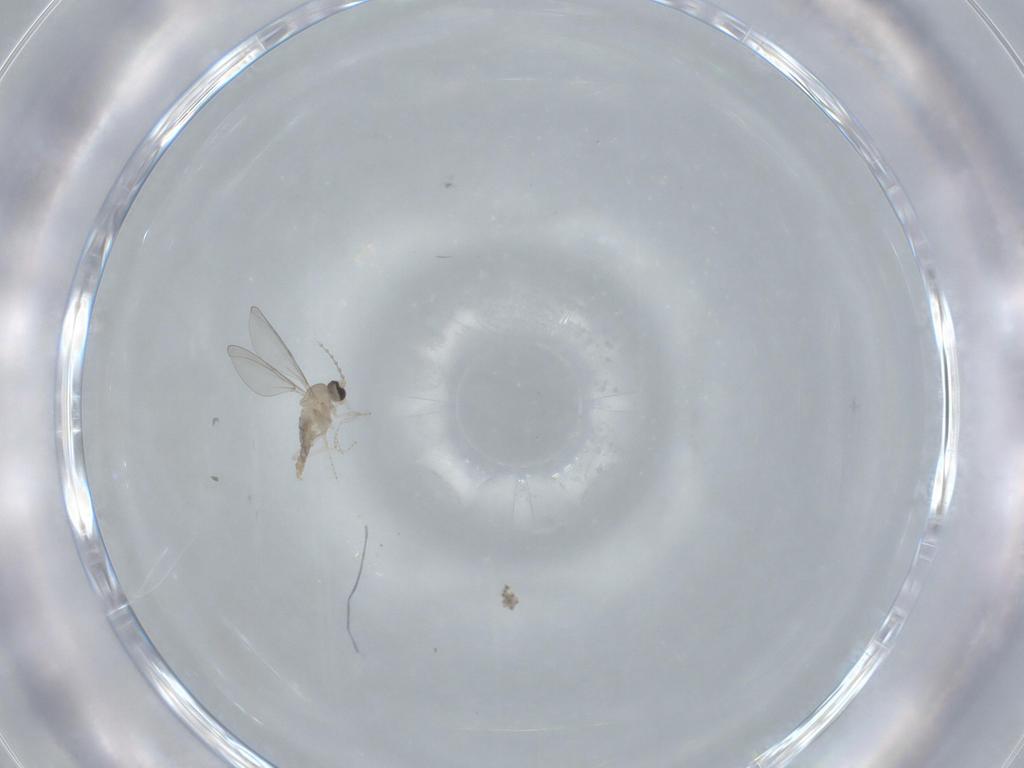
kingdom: Animalia
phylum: Arthropoda
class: Insecta
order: Diptera
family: Cecidomyiidae
